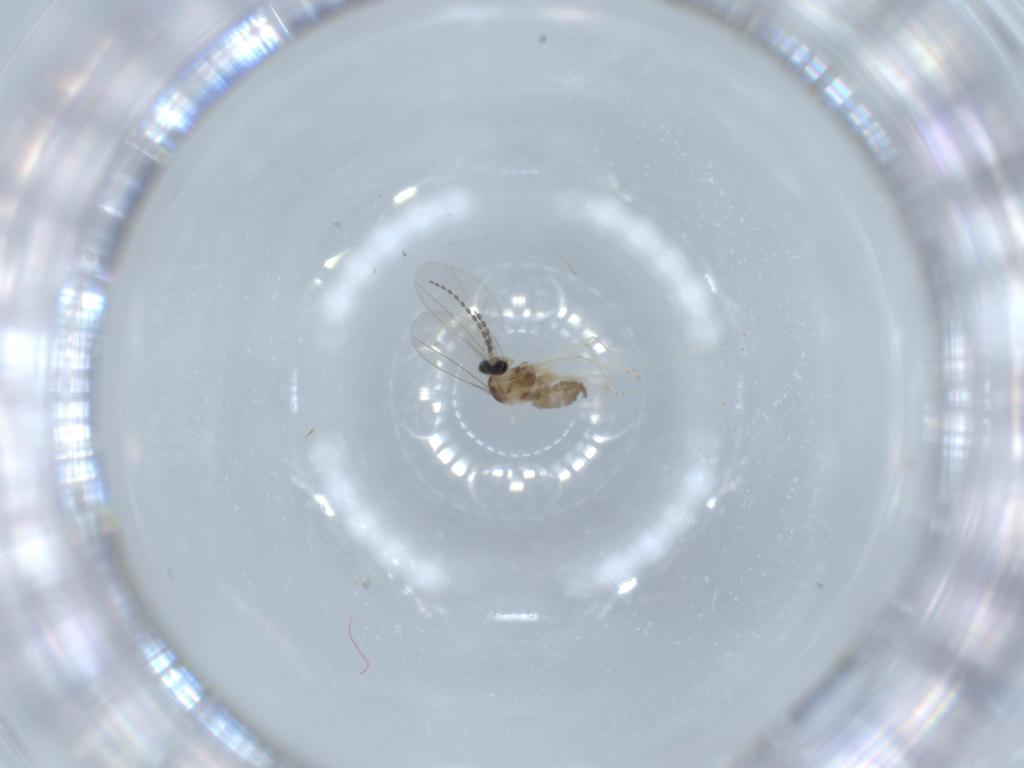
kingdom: Animalia
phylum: Arthropoda
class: Insecta
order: Diptera
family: Cecidomyiidae
